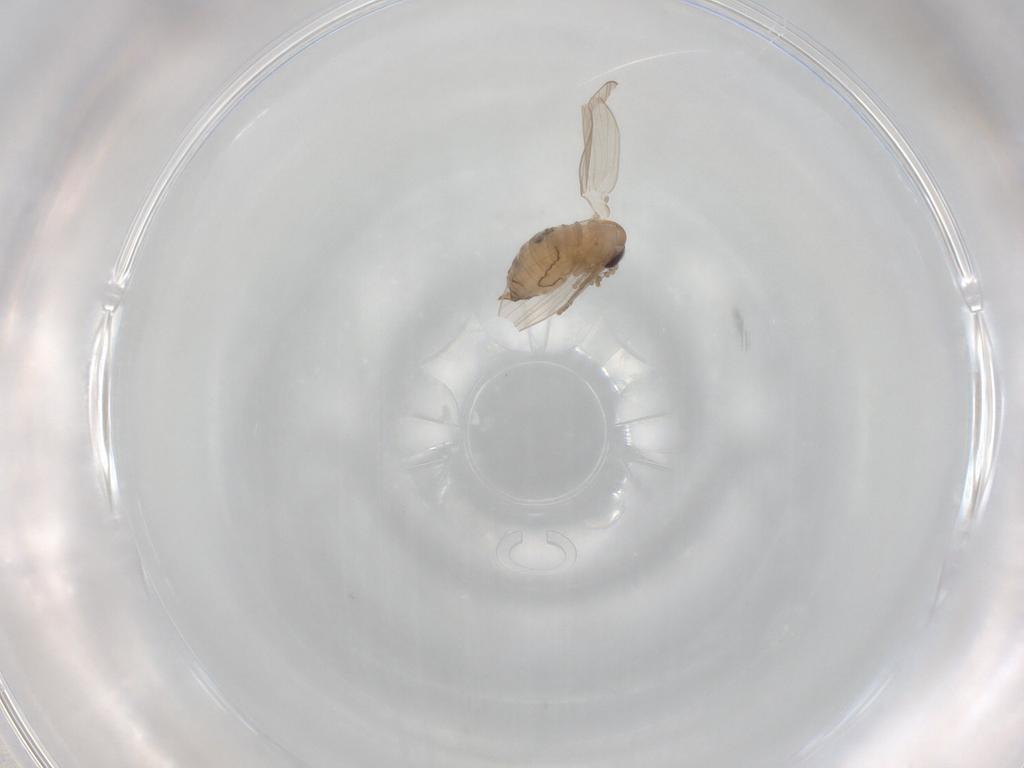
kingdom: Animalia
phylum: Arthropoda
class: Insecta
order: Diptera
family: Psychodidae
